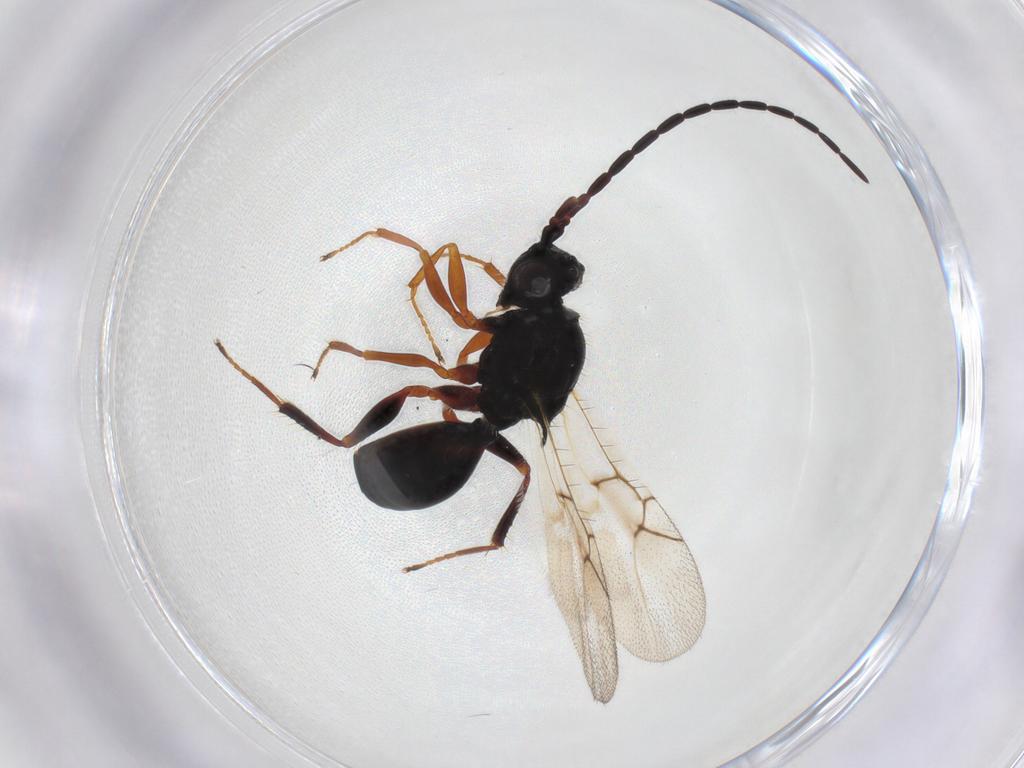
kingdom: Animalia
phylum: Arthropoda
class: Insecta
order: Hymenoptera
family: Figitidae
